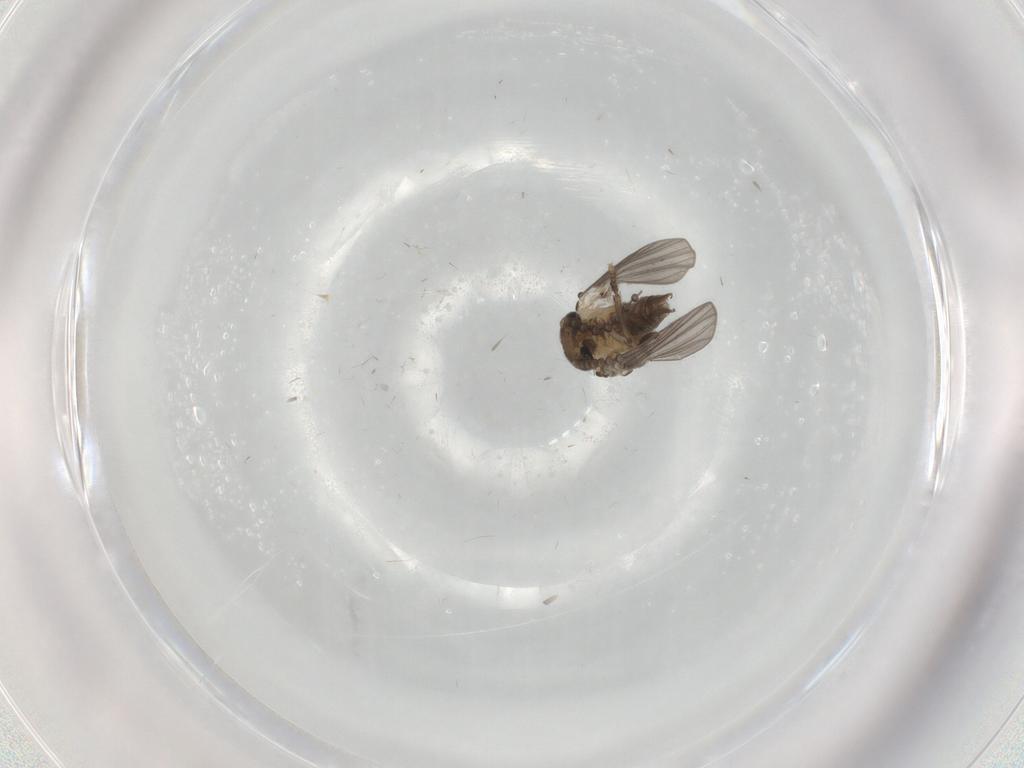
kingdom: Animalia
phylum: Arthropoda
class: Insecta
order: Diptera
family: Psychodidae
